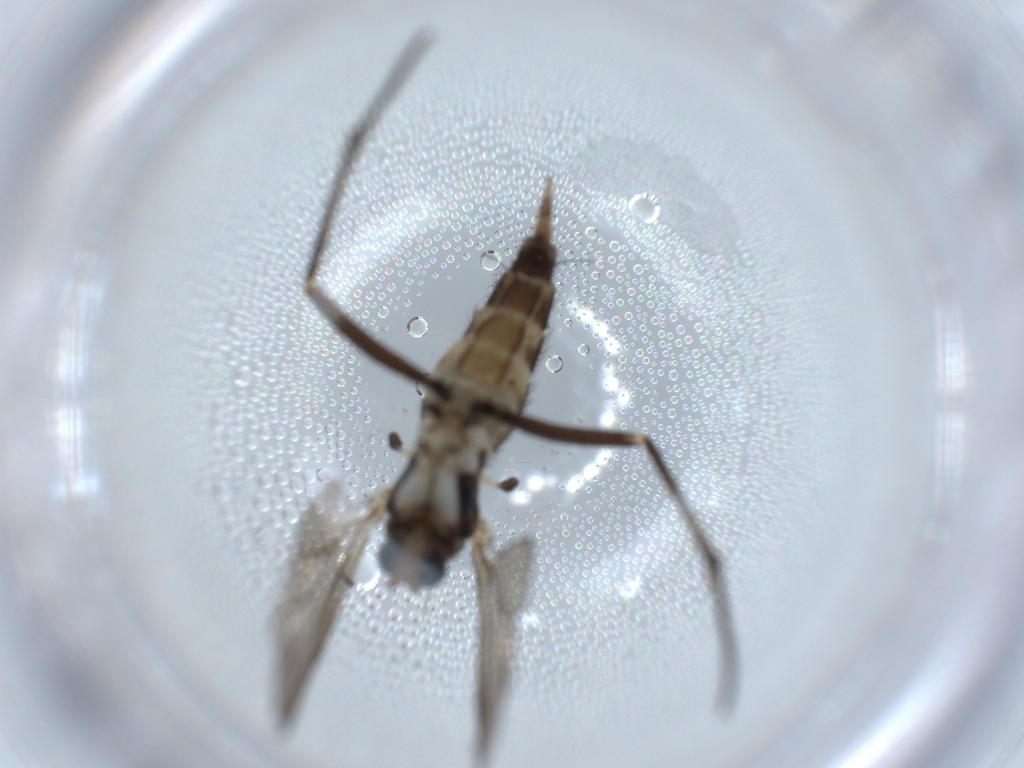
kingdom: Animalia
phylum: Arthropoda
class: Insecta
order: Diptera
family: Sciaridae
